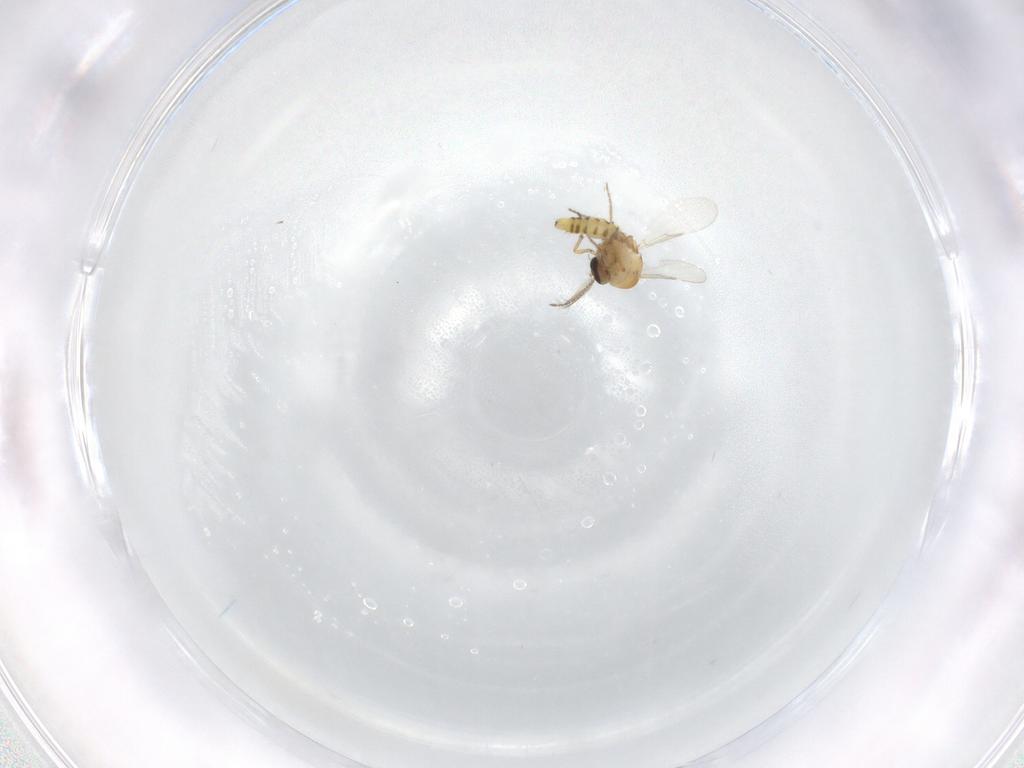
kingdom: Animalia
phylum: Arthropoda
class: Insecta
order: Diptera
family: Ceratopogonidae
